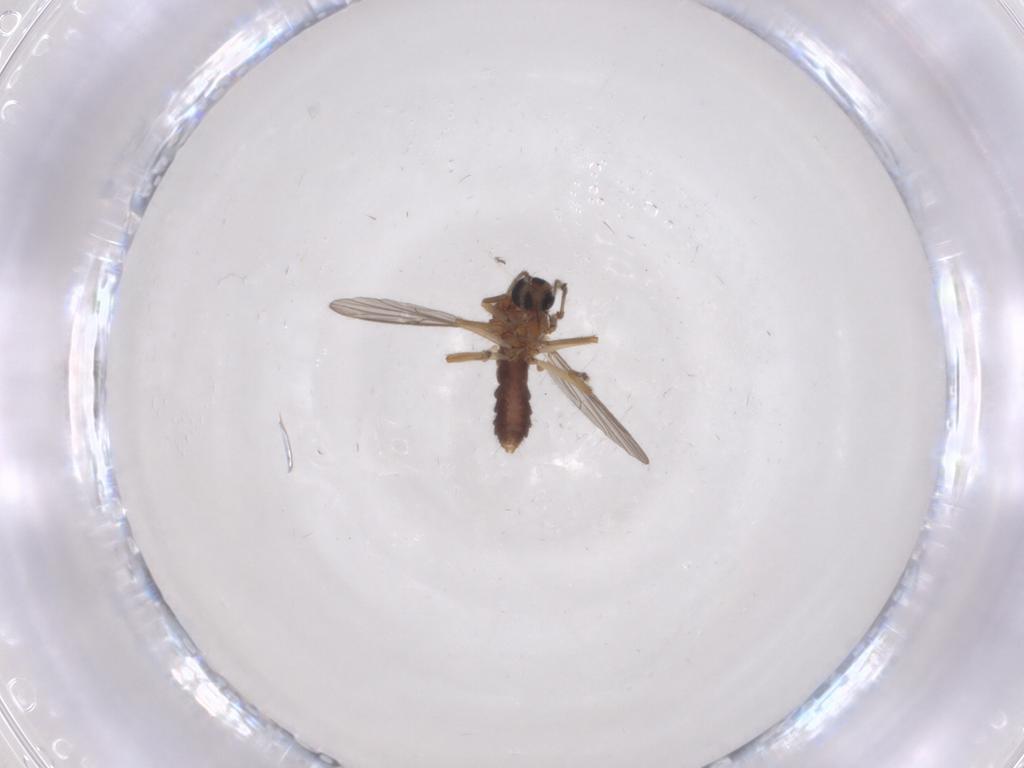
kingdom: Animalia
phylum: Arthropoda
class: Insecta
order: Diptera
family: Ceratopogonidae
